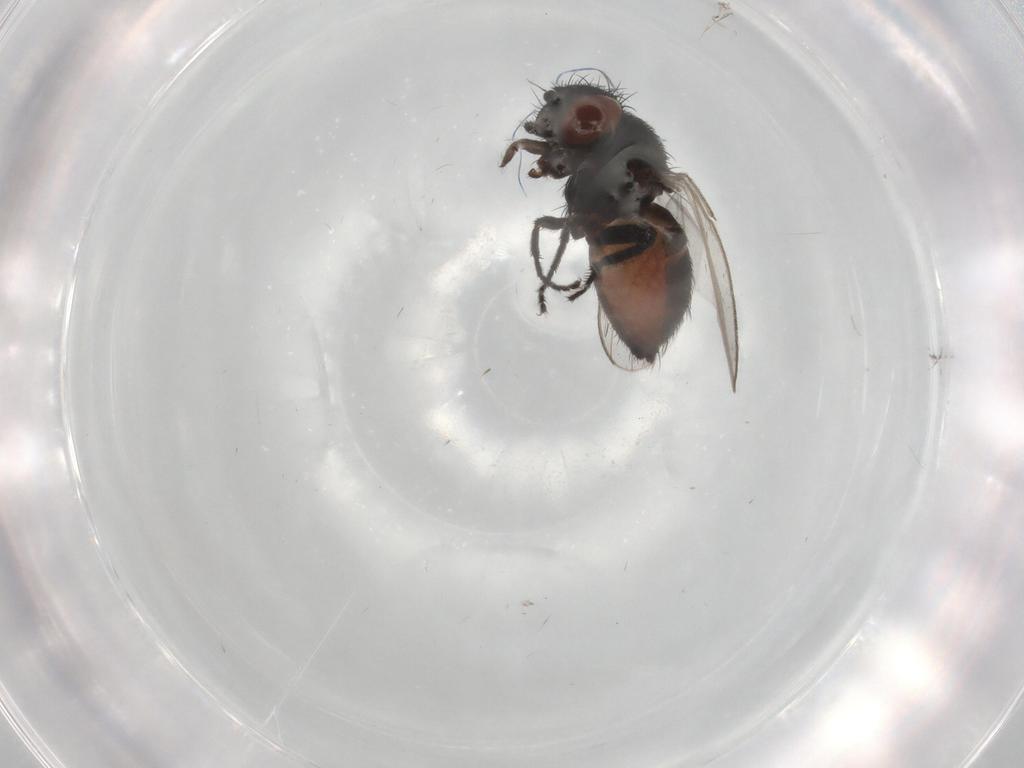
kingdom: Animalia
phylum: Arthropoda
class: Insecta
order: Diptera
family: Milichiidae
